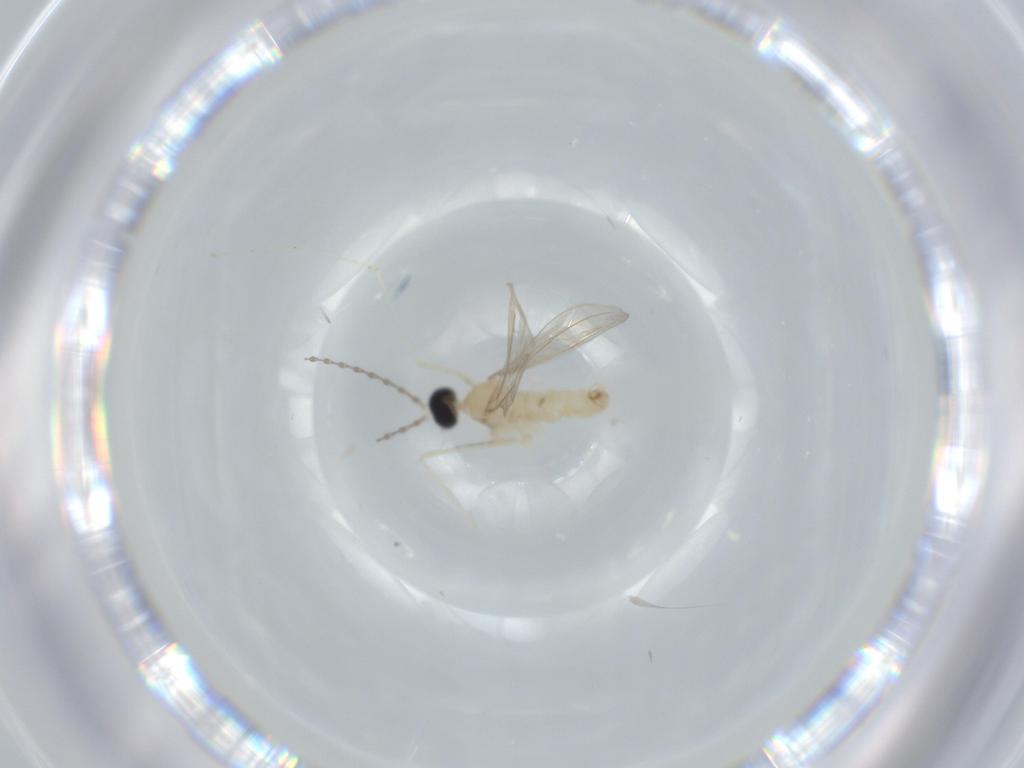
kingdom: Animalia
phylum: Arthropoda
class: Insecta
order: Diptera
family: Cecidomyiidae
